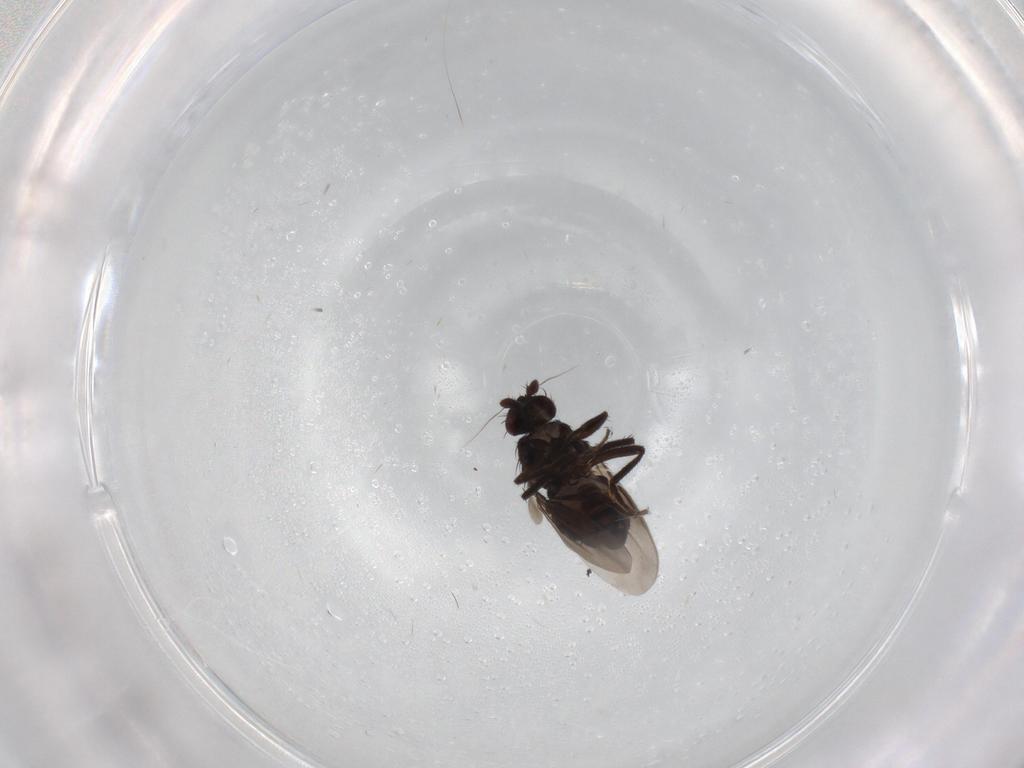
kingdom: Animalia
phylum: Arthropoda
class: Insecta
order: Diptera
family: Sphaeroceridae
